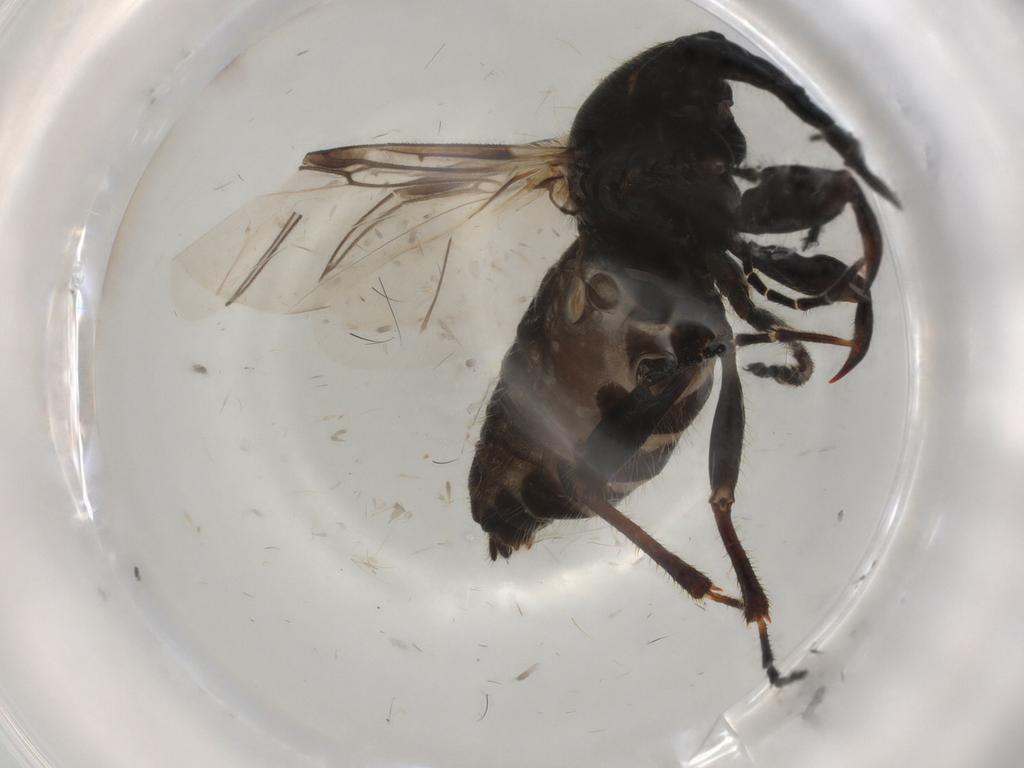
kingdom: Animalia
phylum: Arthropoda
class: Insecta
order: Diptera
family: Bibionidae
